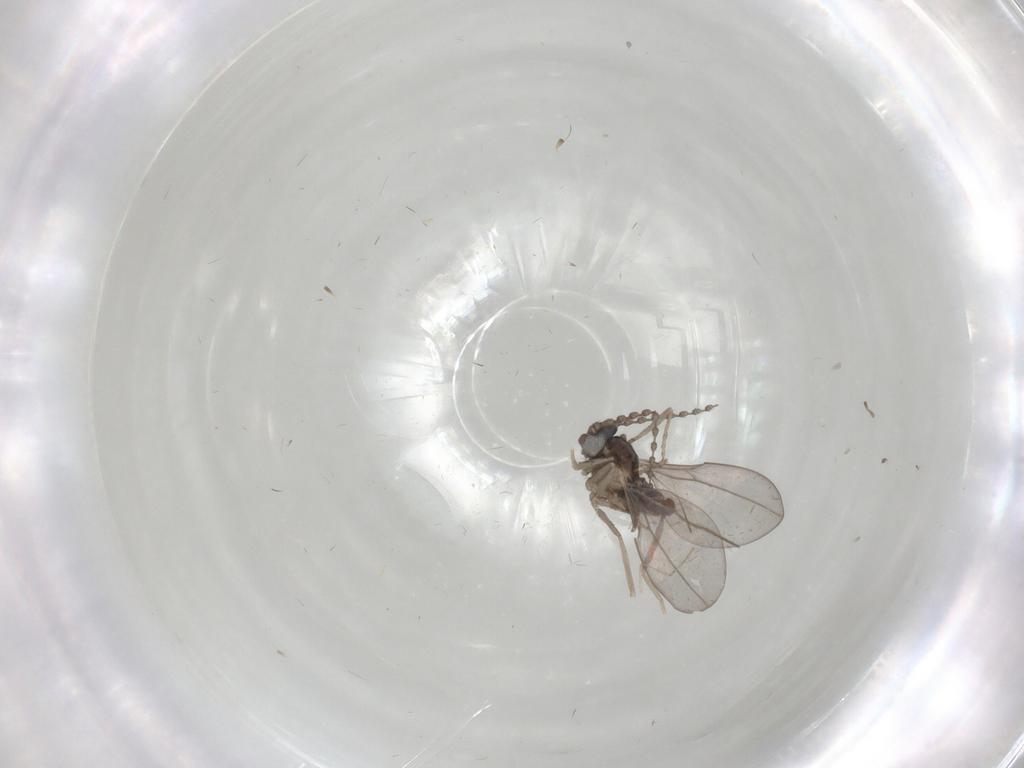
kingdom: Animalia
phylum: Arthropoda
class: Insecta
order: Diptera
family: Cecidomyiidae
